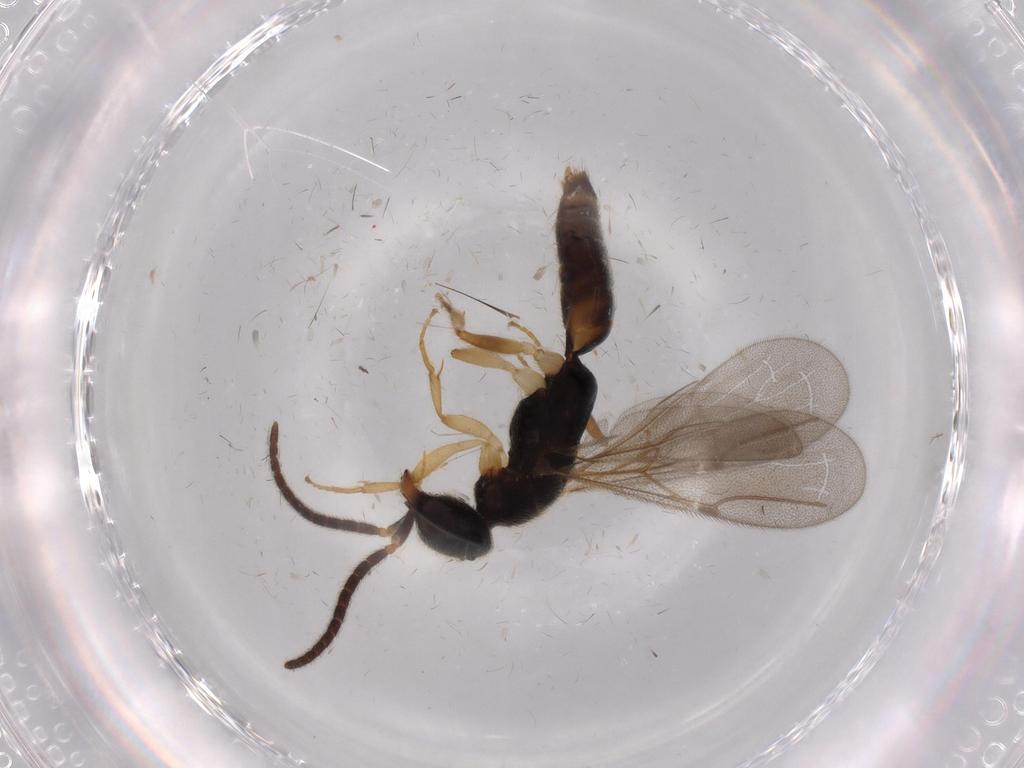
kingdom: Animalia
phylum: Arthropoda
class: Insecta
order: Hymenoptera
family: Bethylidae
